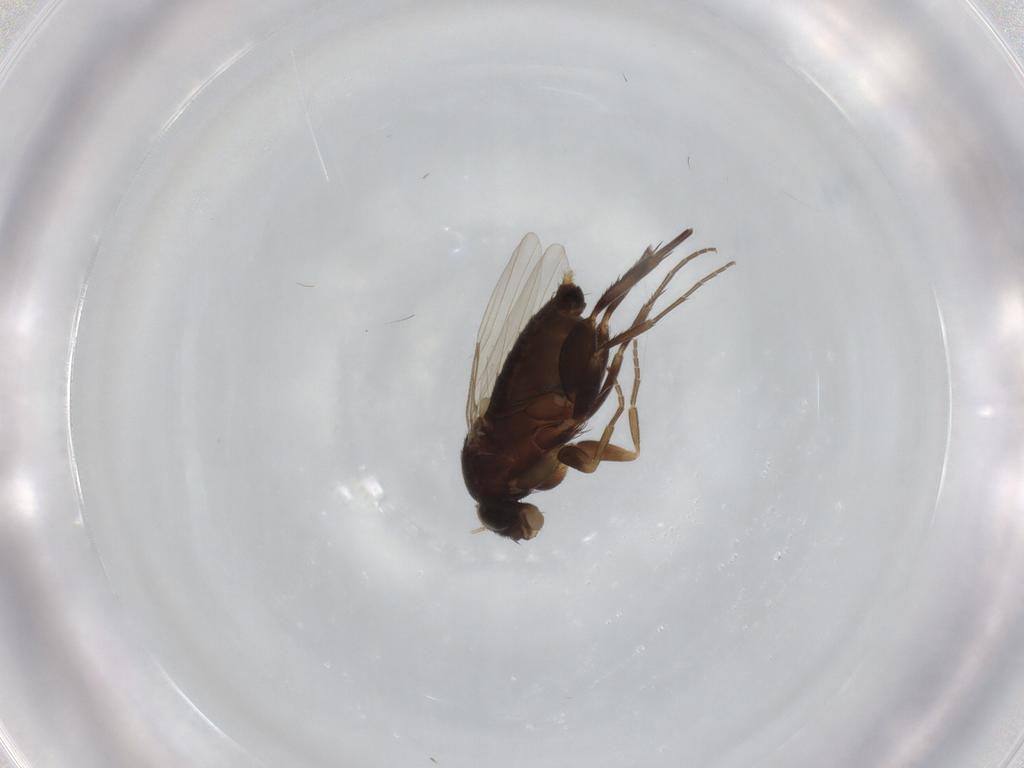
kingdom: Animalia
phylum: Arthropoda
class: Insecta
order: Diptera
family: Phoridae
